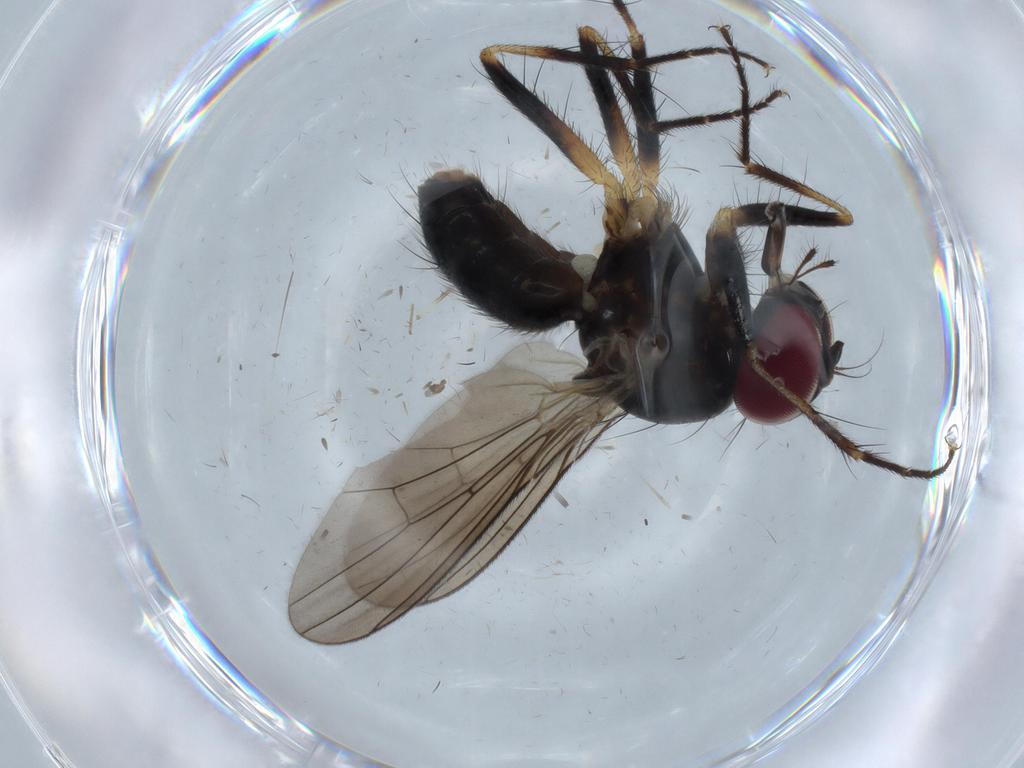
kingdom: Animalia
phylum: Arthropoda
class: Insecta
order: Diptera
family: Anthomyiidae
